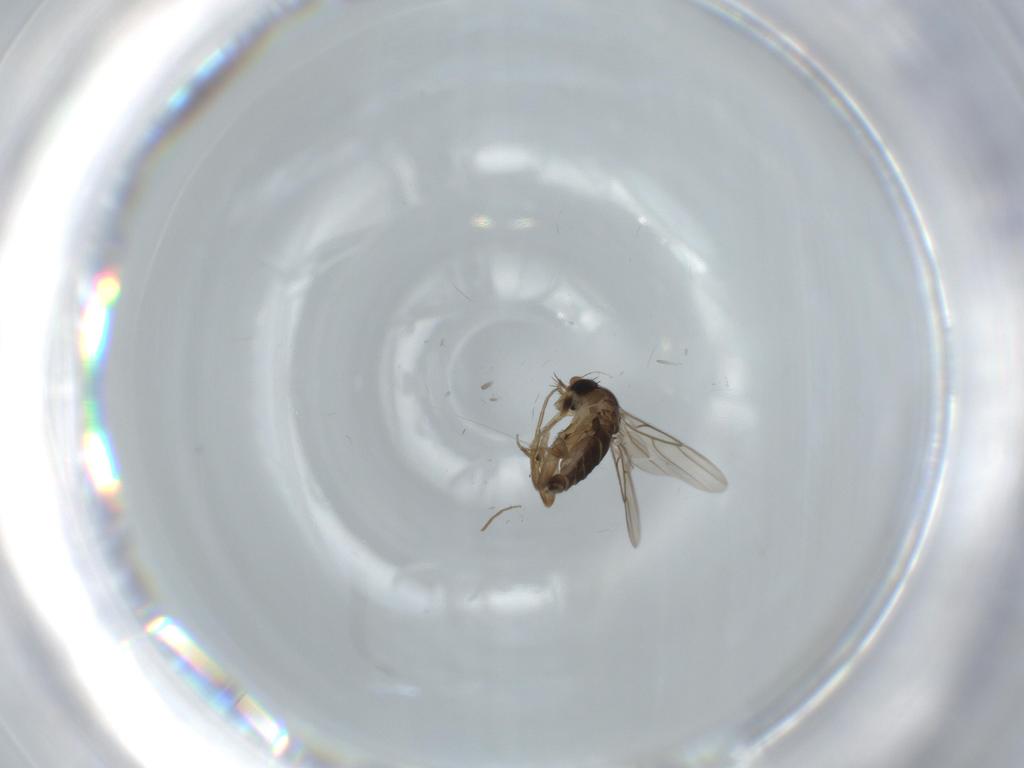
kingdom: Animalia
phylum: Arthropoda
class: Insecta
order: Diptera
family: Phoridae
